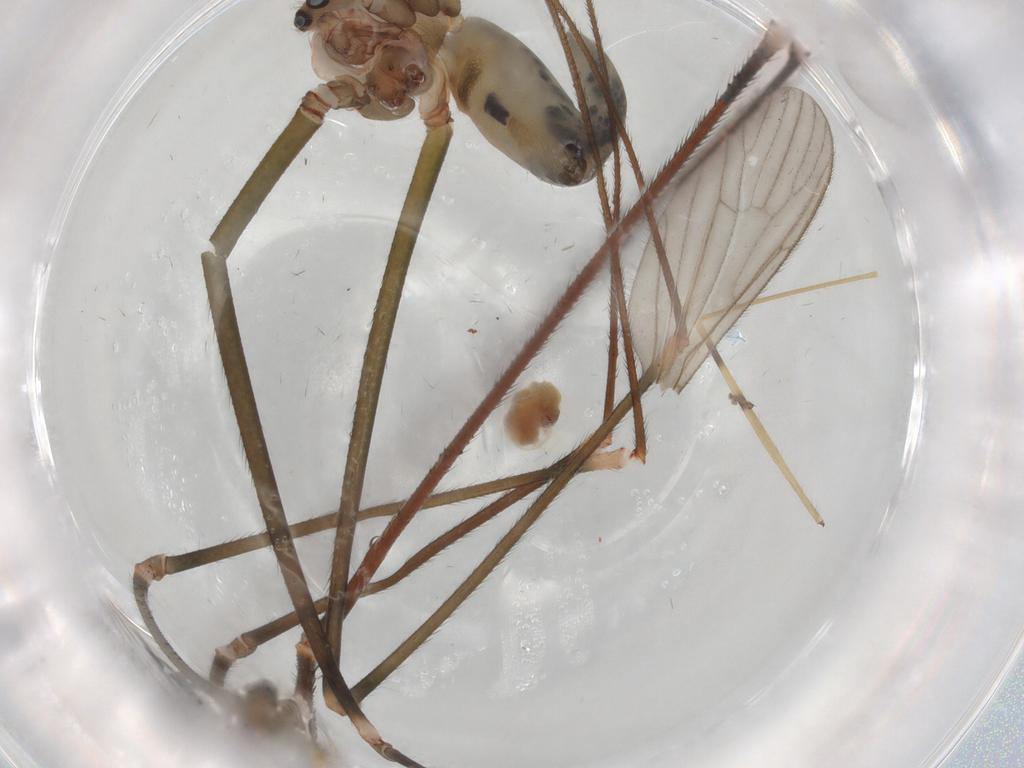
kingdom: Animalia
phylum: Arthropoda
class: Arachnida
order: Araneae
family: Pholcidae
